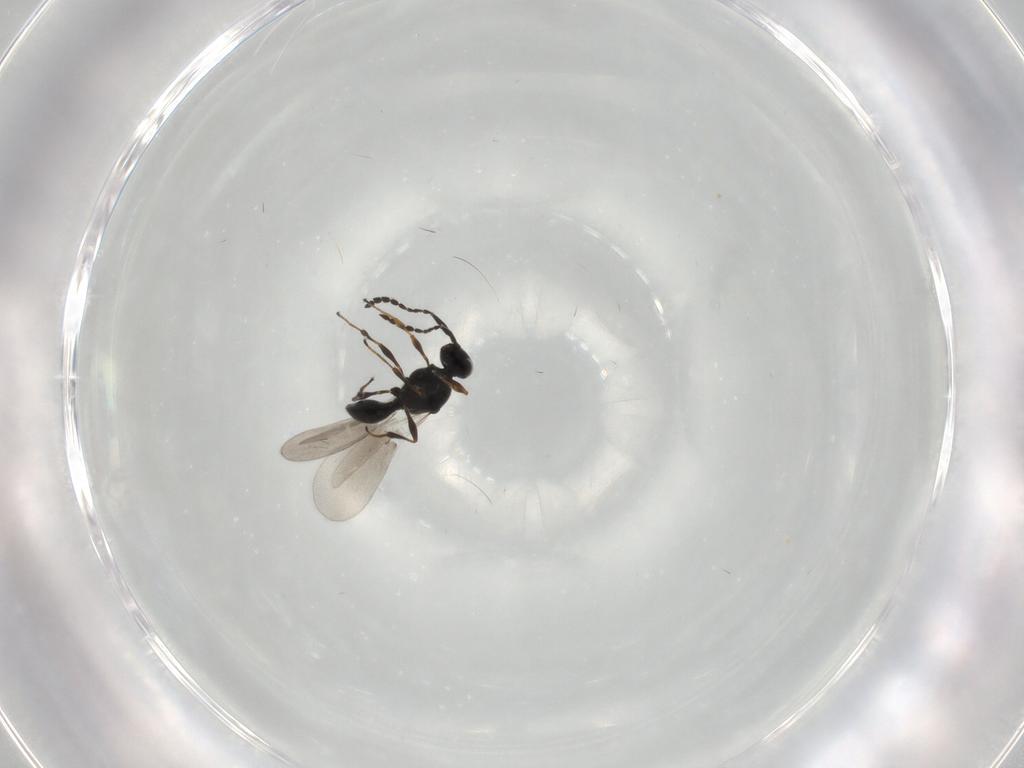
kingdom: Animalia
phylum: Arthropoda
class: Insecta
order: Hymenoptera
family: Platygastridae
